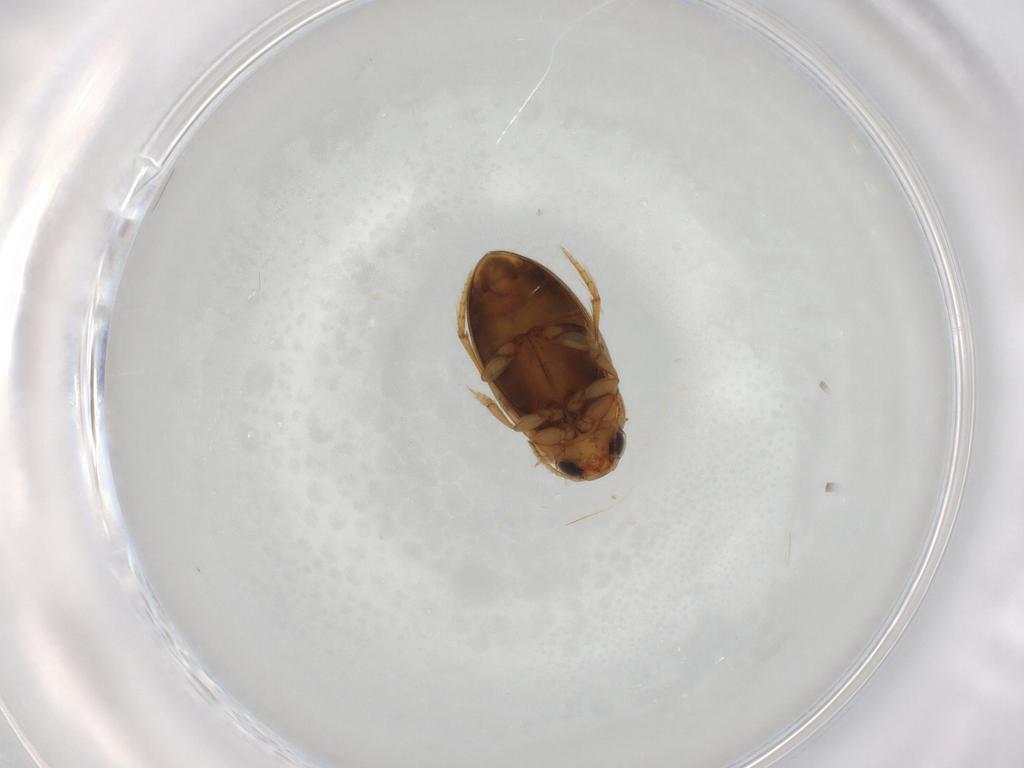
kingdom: Animalia
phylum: Arthropoda
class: Insecta
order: Coleoptera
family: Dytiscidae
